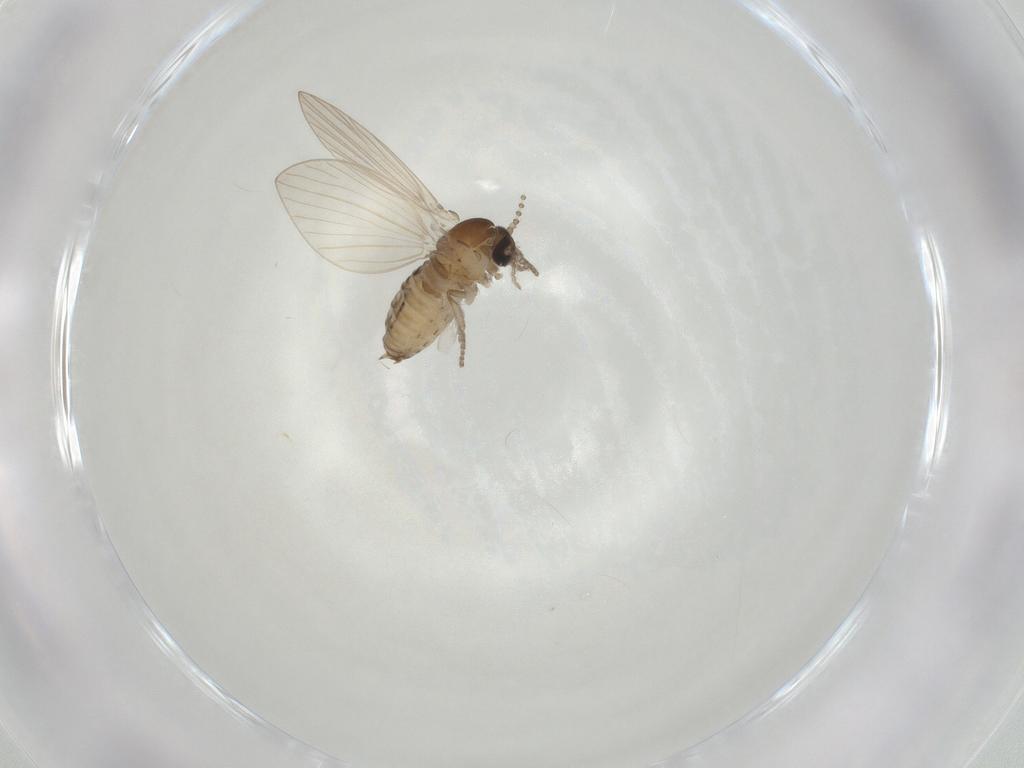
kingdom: Animalia
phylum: Arthropoda
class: Insecta
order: Diptera
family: Psychodidae
